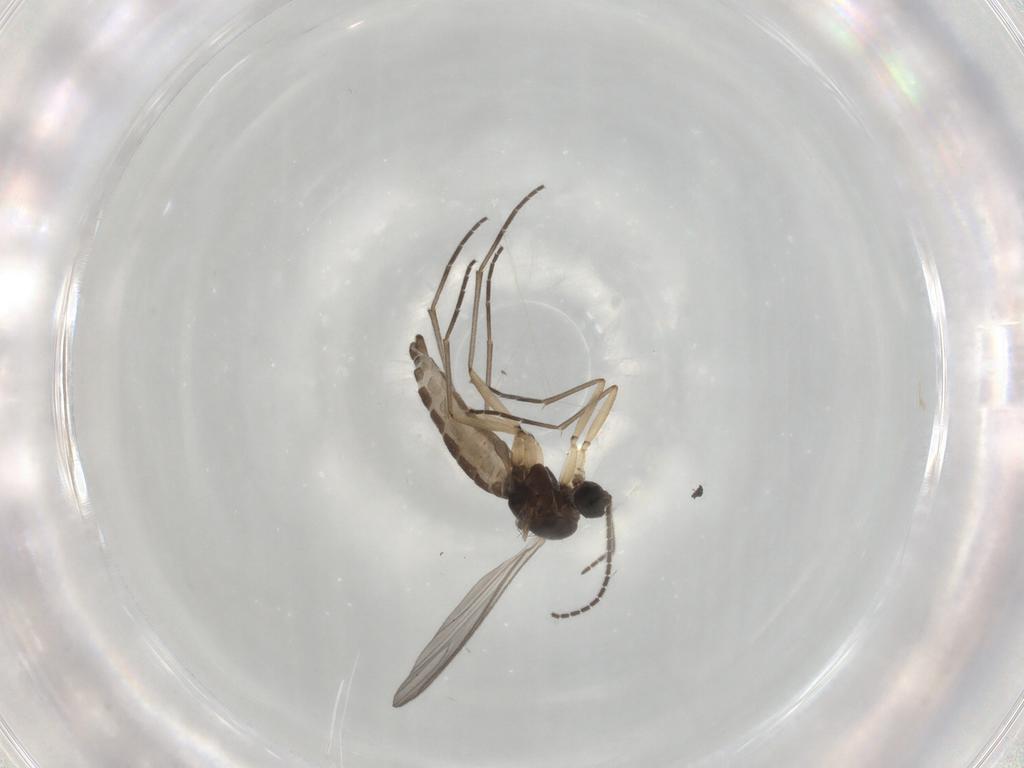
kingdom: Animalia
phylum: Arthropoda
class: Insecta
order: Diptera
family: Sciaridae
